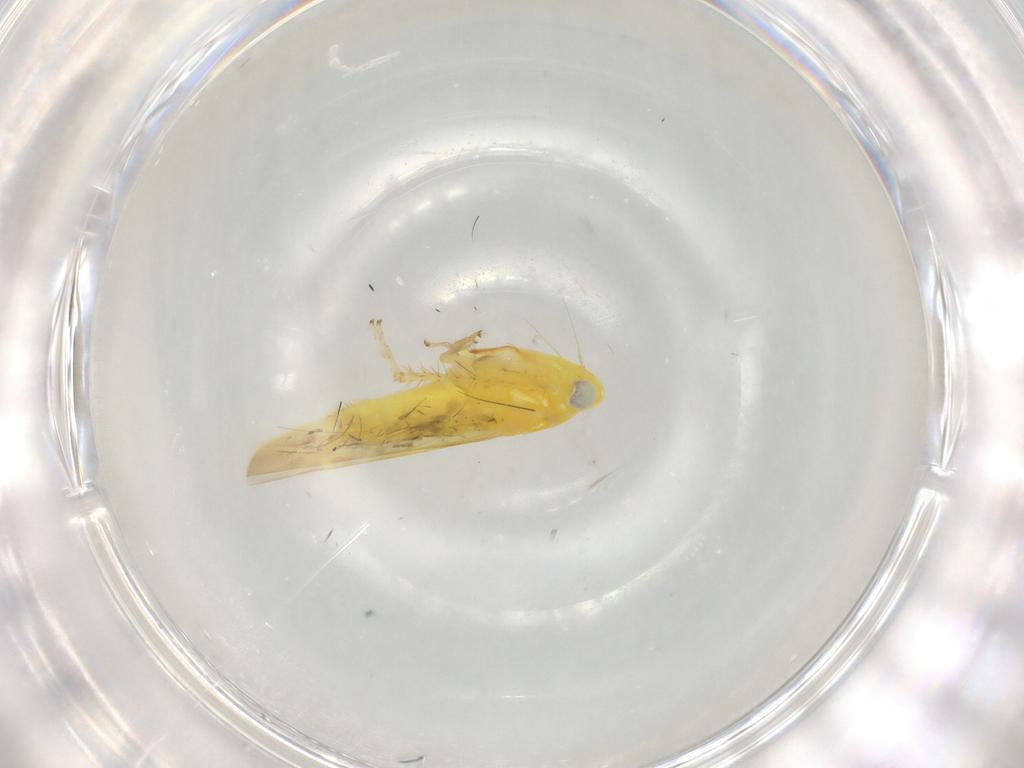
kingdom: Animalia
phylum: Arthropoda
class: Insecta
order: Hemiptera
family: Cicadellidae
